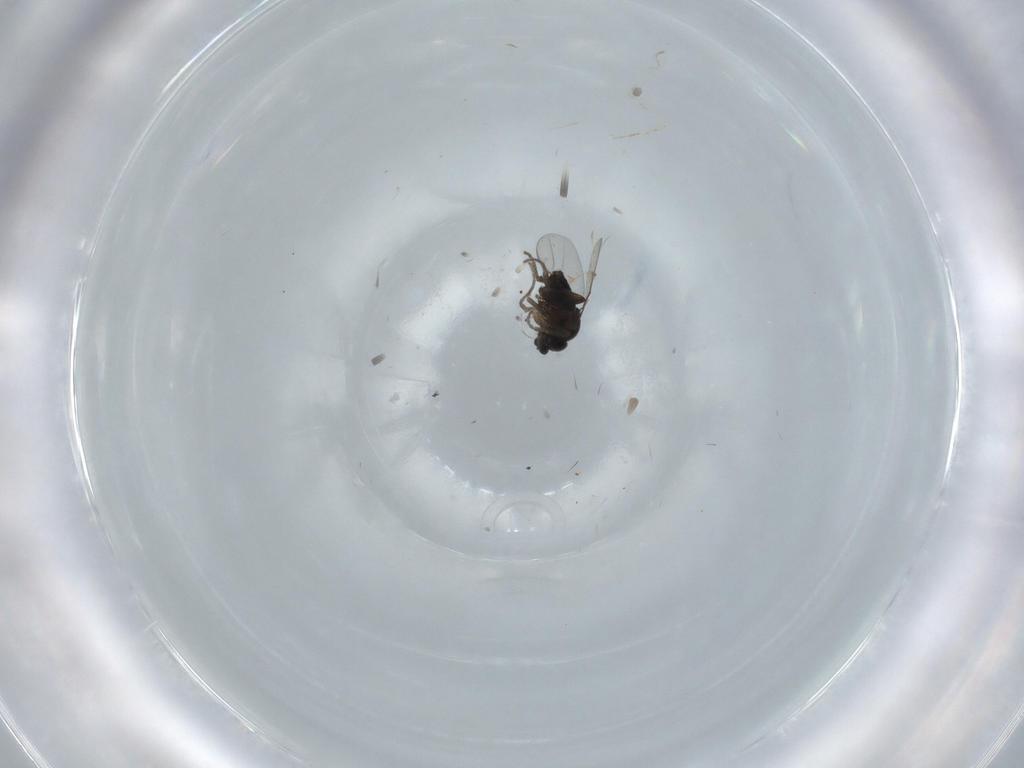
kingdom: Animalia
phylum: Arthropoda
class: Insecta
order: Diptera
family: Phoridae
